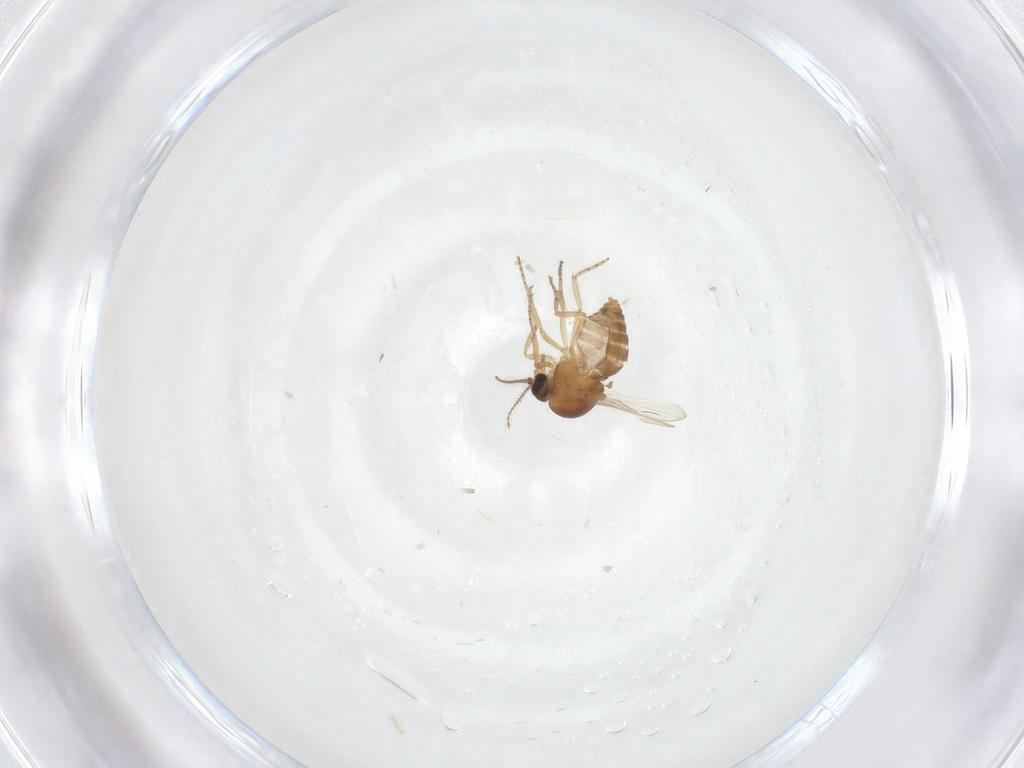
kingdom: Animalia
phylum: Arthropoda
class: Insecta
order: Diptera
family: Ceratopogonidae
